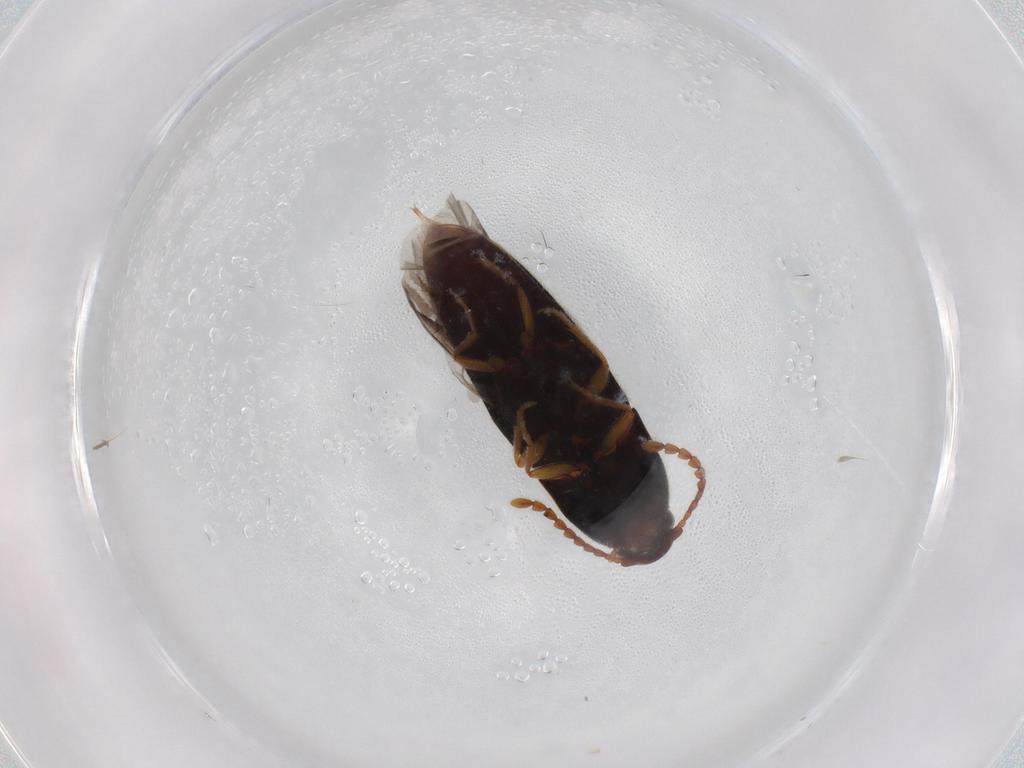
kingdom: Animalia
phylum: Arthropoda
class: Insecta
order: Coleoptera
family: Elateridae
